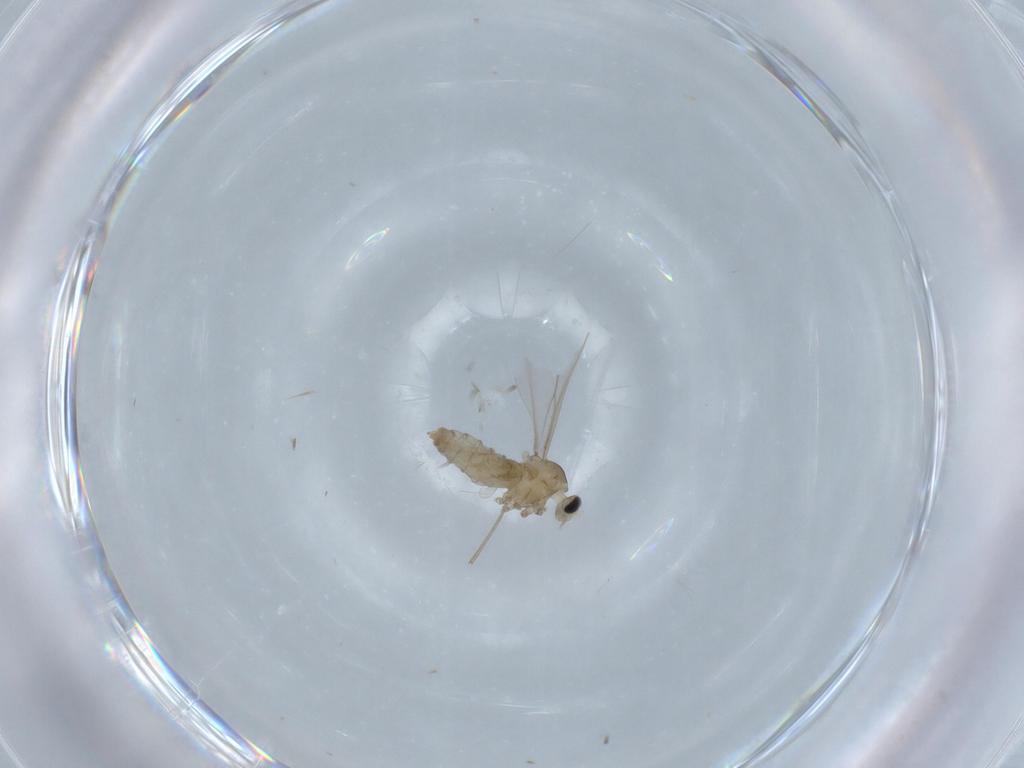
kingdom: Animalia
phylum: Arthropoda
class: Insecta
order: Diptera
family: Cecidomyiidae
